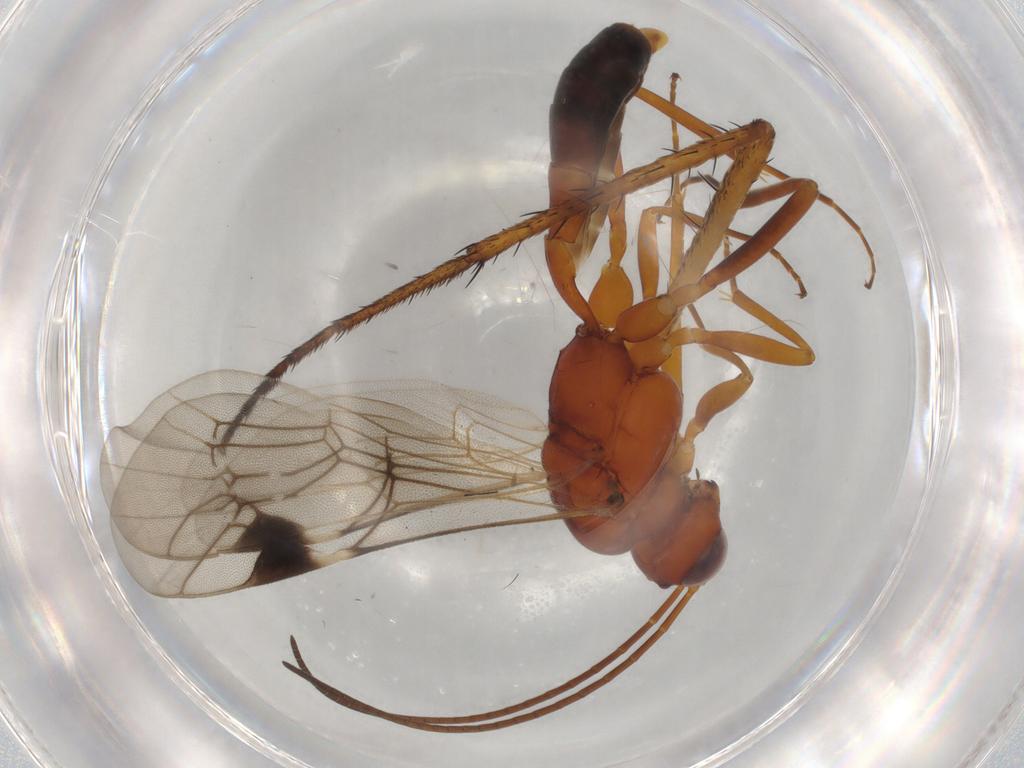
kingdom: Animalia
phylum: Arthropoda
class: Insecta
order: Hymenoptera
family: Ichneumonidae
